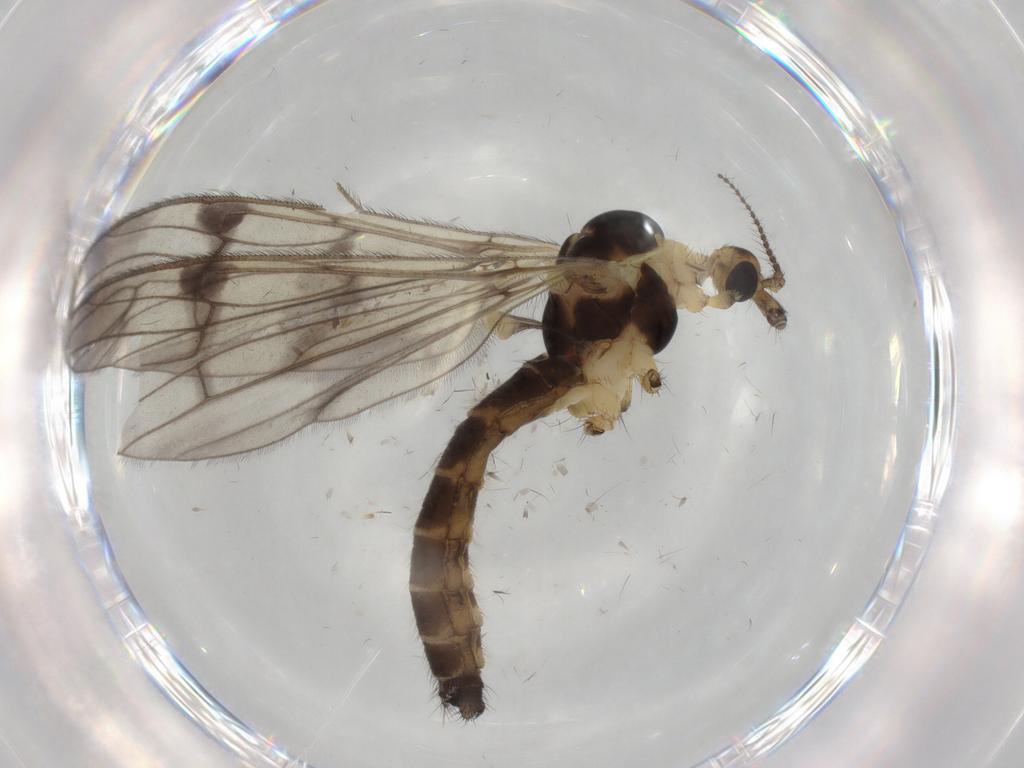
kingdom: Animalia
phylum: Arthropoda
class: Insecta
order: Diptera
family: Limoniidae
